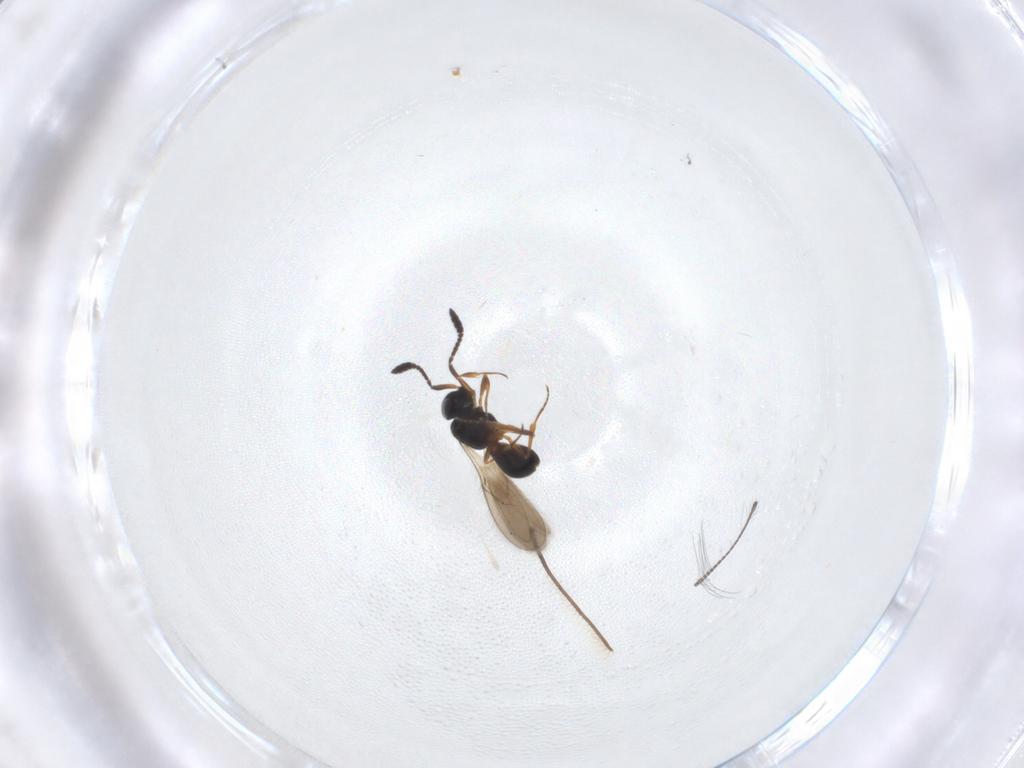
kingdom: Animalia
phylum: Arthropoda
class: Insecta
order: Hymenoptera
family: Scelionidae
